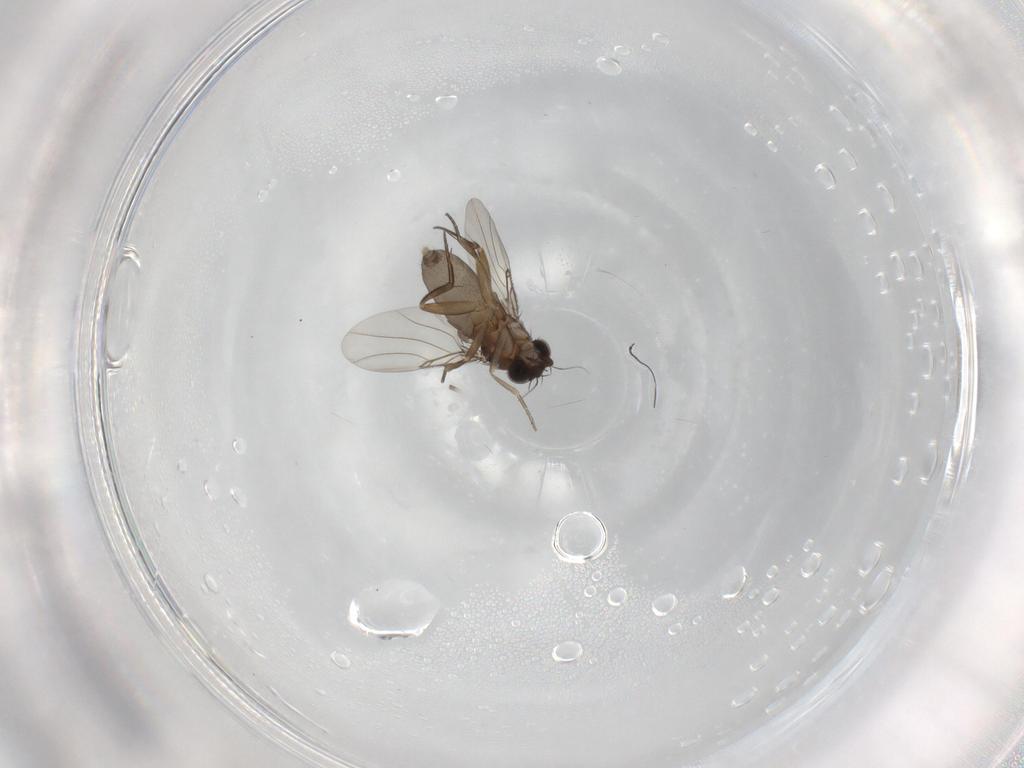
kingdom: Animalia
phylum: Arthropoda
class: Insecta
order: Diptera
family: Phoridae
